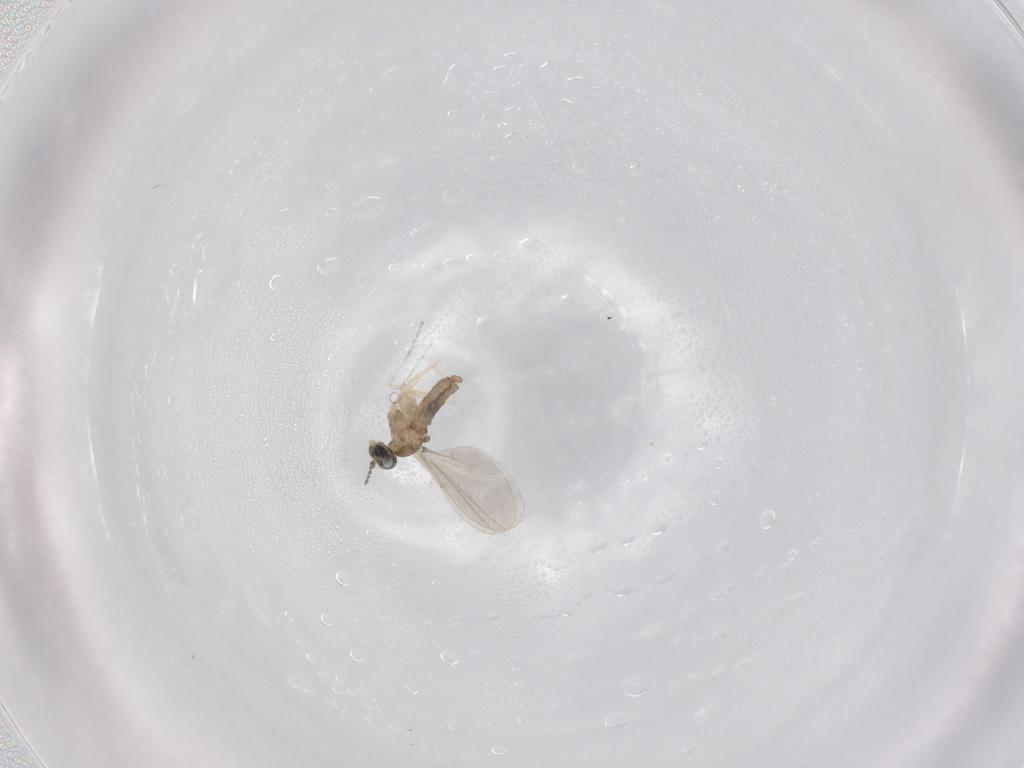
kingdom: Animalia
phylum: Arthropoda
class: Insecta
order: Diptera
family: Cecidomyiidae
